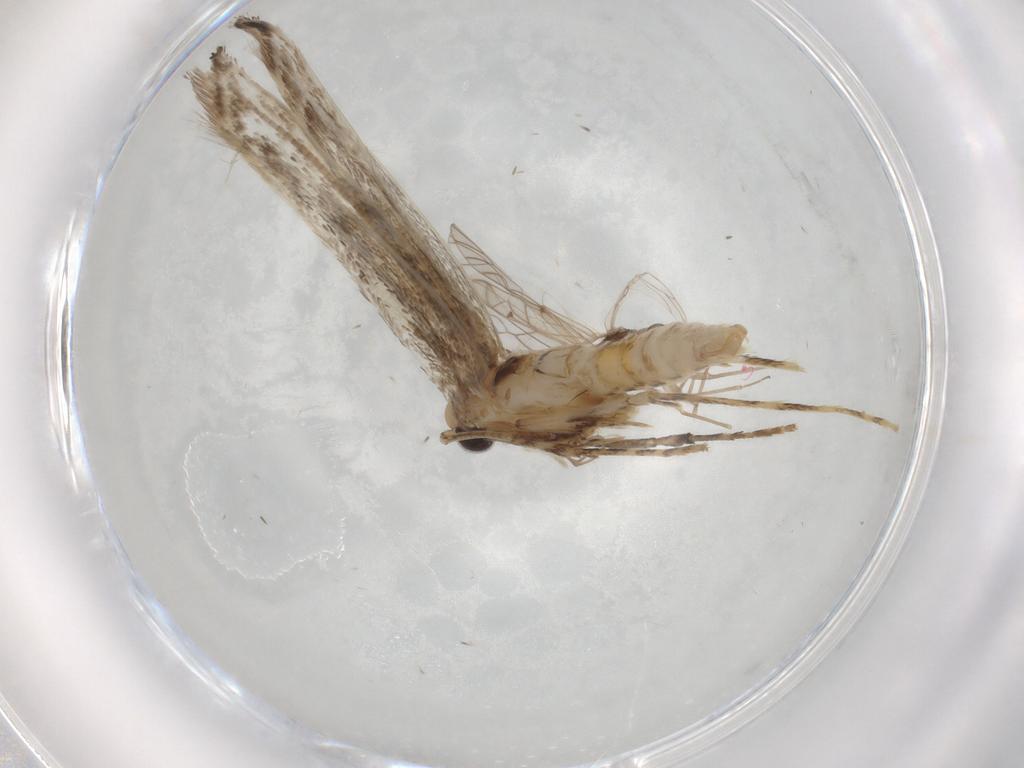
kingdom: Animalia
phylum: Arthropoda
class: Insecta
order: Lepidoptera
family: Gracillariidae
